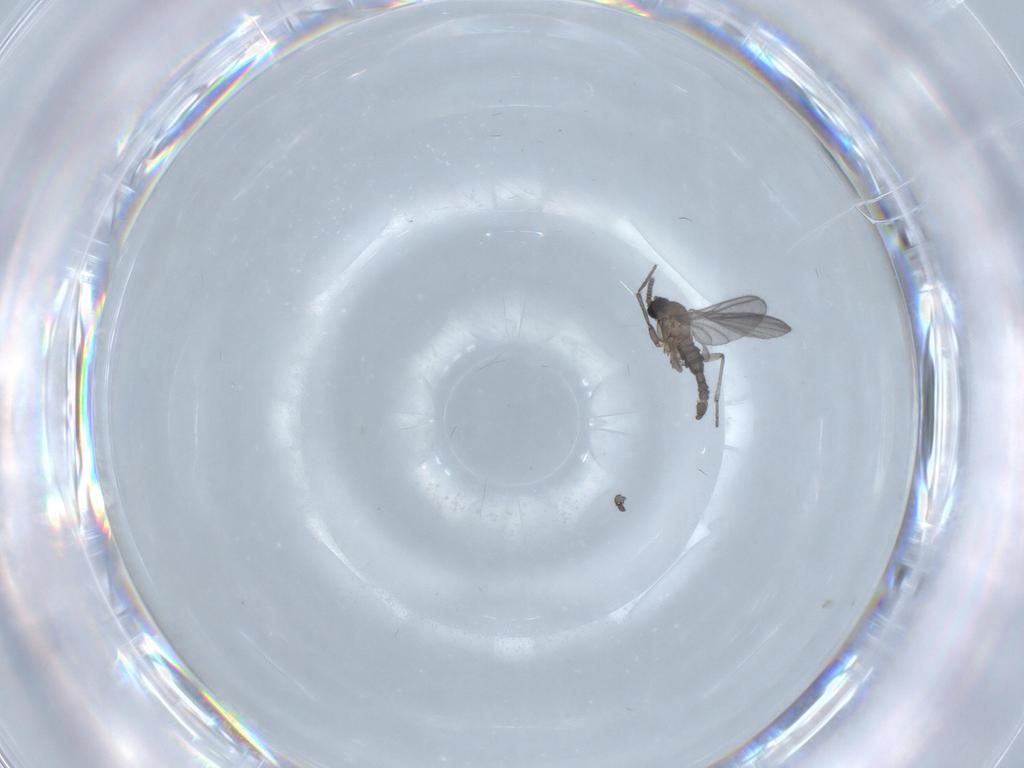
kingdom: Animalia
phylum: Arthropoda
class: Insecta
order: Diptera
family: Sciaridae
